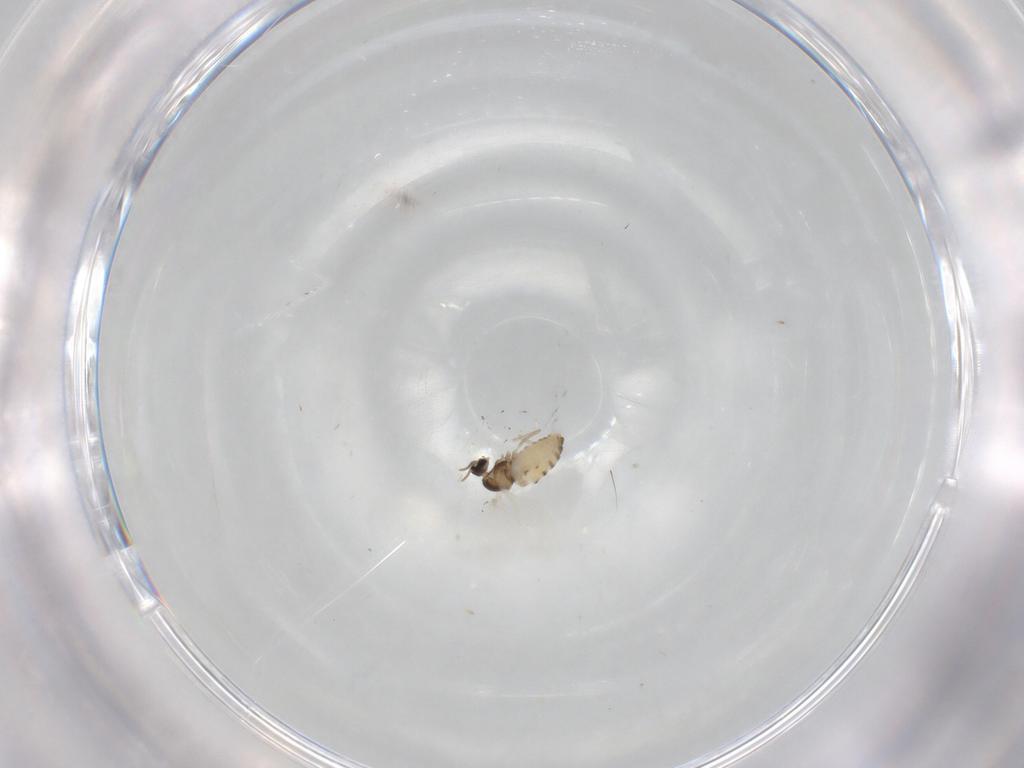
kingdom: Animalia
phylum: Arthropoda
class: Insecta
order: Diptera
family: Cecidomyiidae
